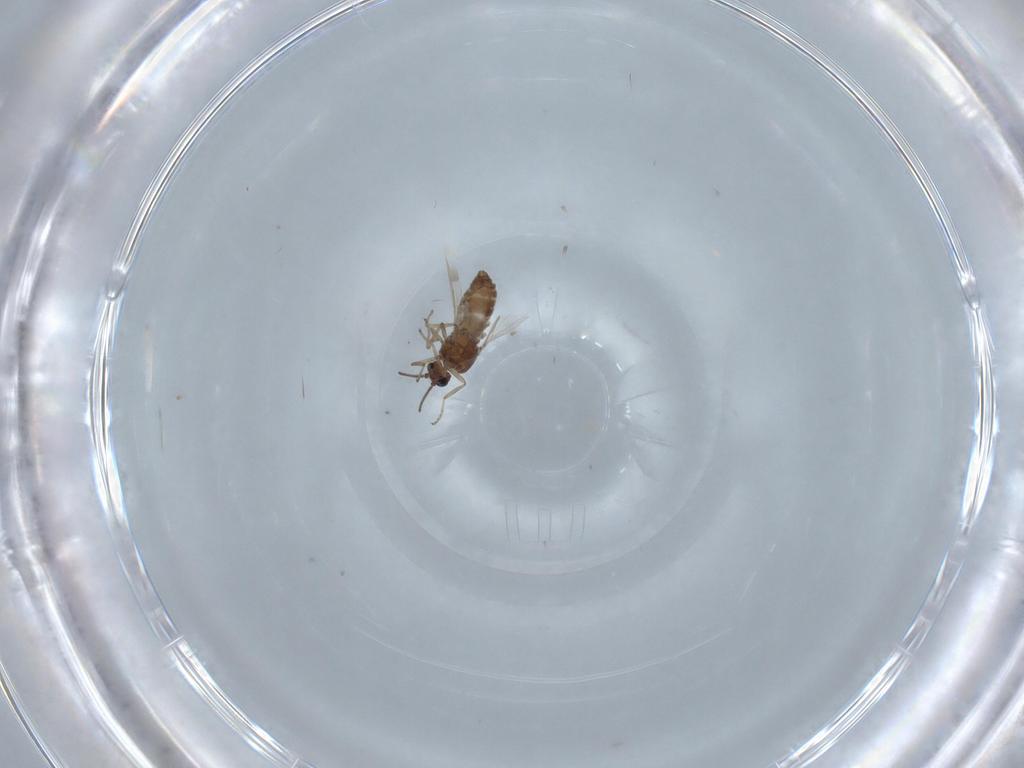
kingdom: Animalia
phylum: Arthropoda
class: Insecta
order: Diptera
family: Ceratopogonidae
